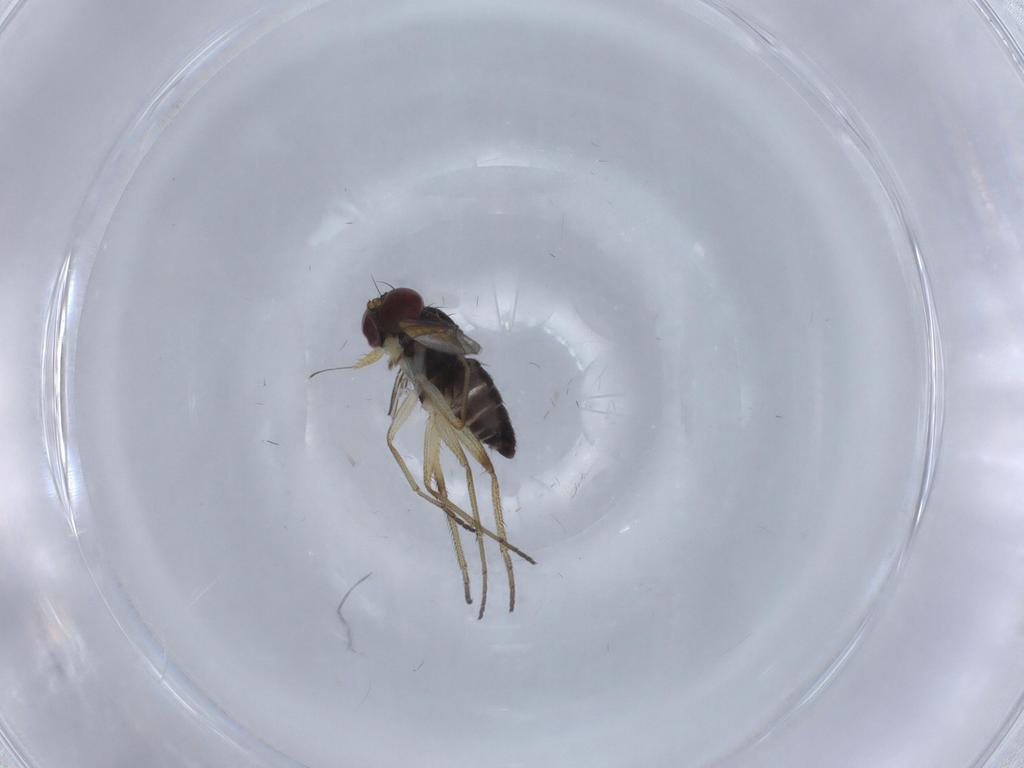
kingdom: Animalia
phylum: Arthropoda
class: Insecta
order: Diptera
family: Dolichopodidae
